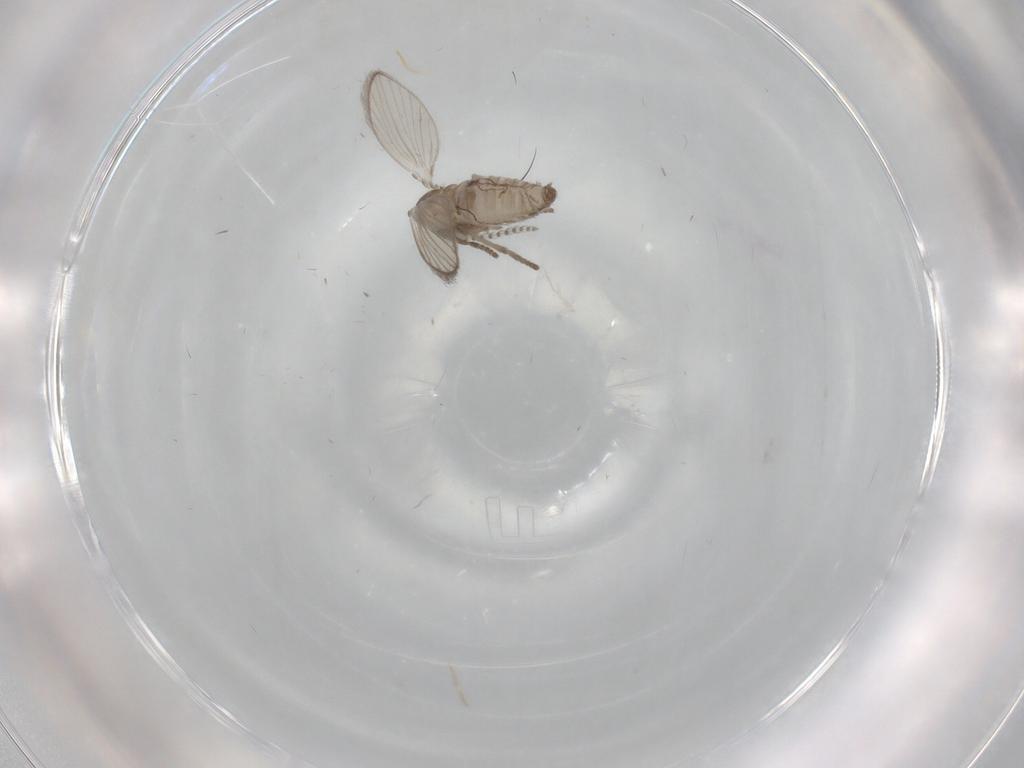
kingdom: Animalia
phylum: Arthropoda
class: Insecta
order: Diptera
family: Psychodidae
